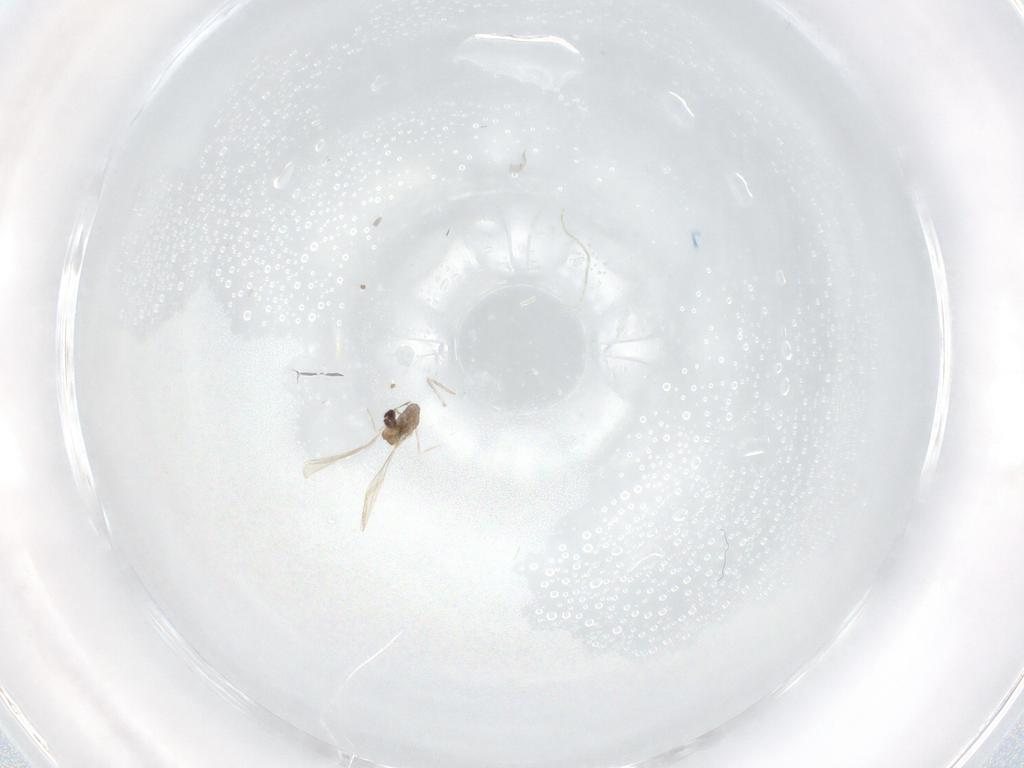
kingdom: Animalia
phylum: Arthropoda
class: Insecta
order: Diptera
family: Cecidomyiidae
